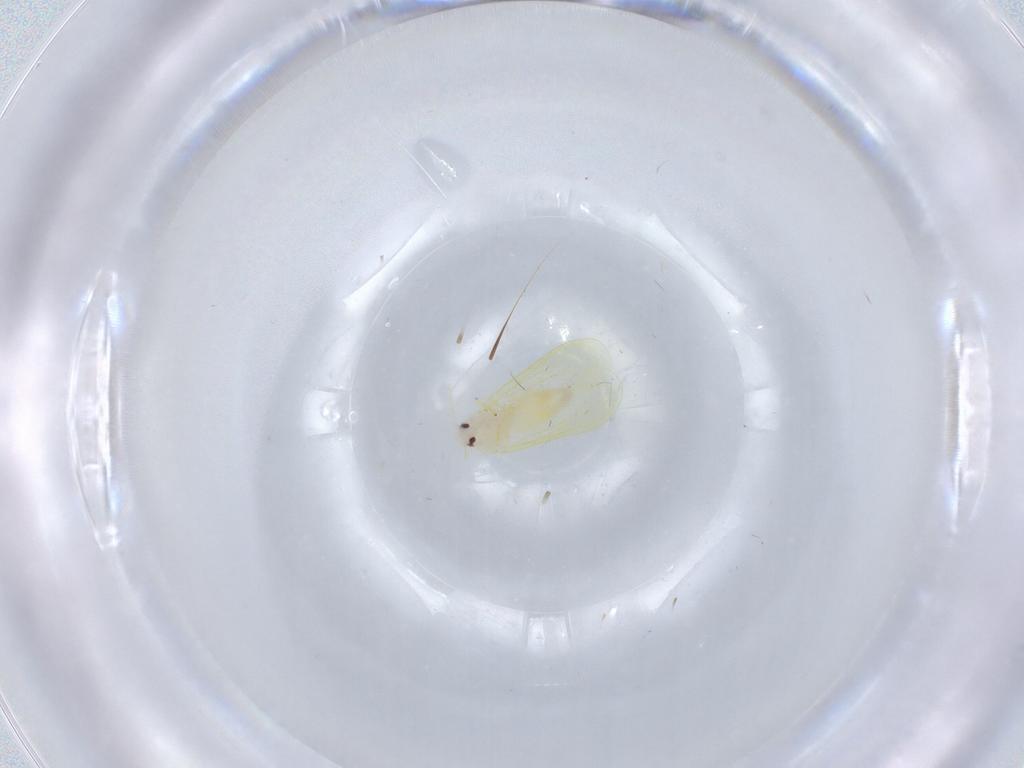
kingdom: Animalia
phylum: Arthropoda
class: Insecta
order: Hemiptera
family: Aleyrodidae
